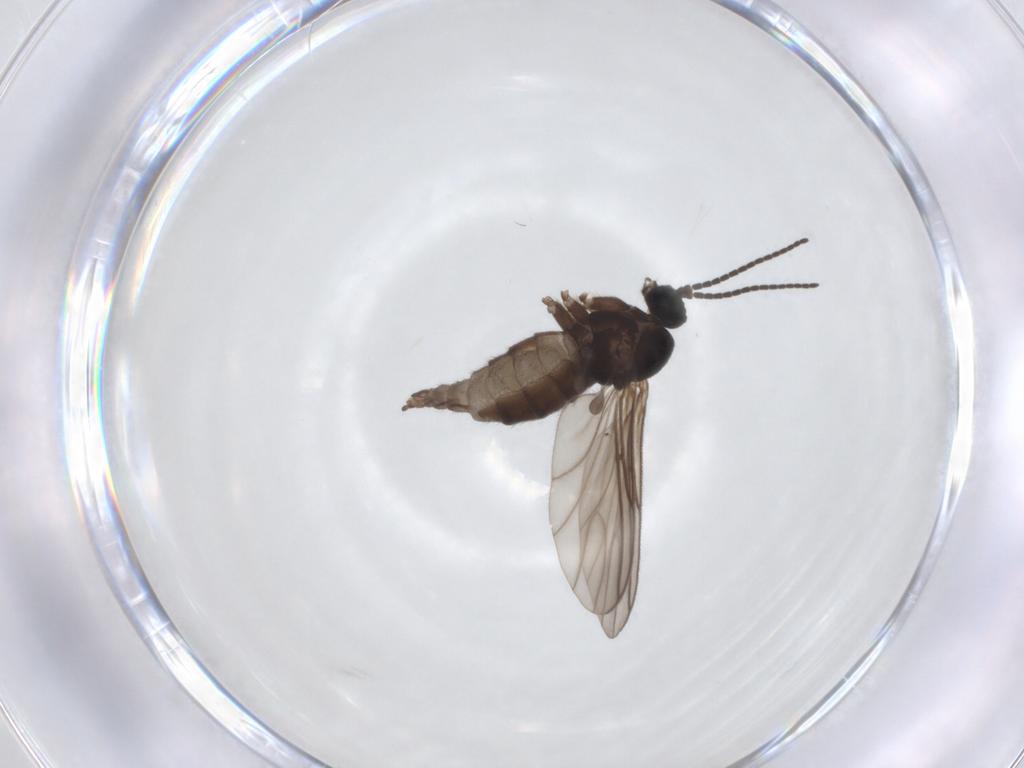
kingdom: Animalia
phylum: Arthropoda
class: Insecta
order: Diptera
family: Sciaridae
